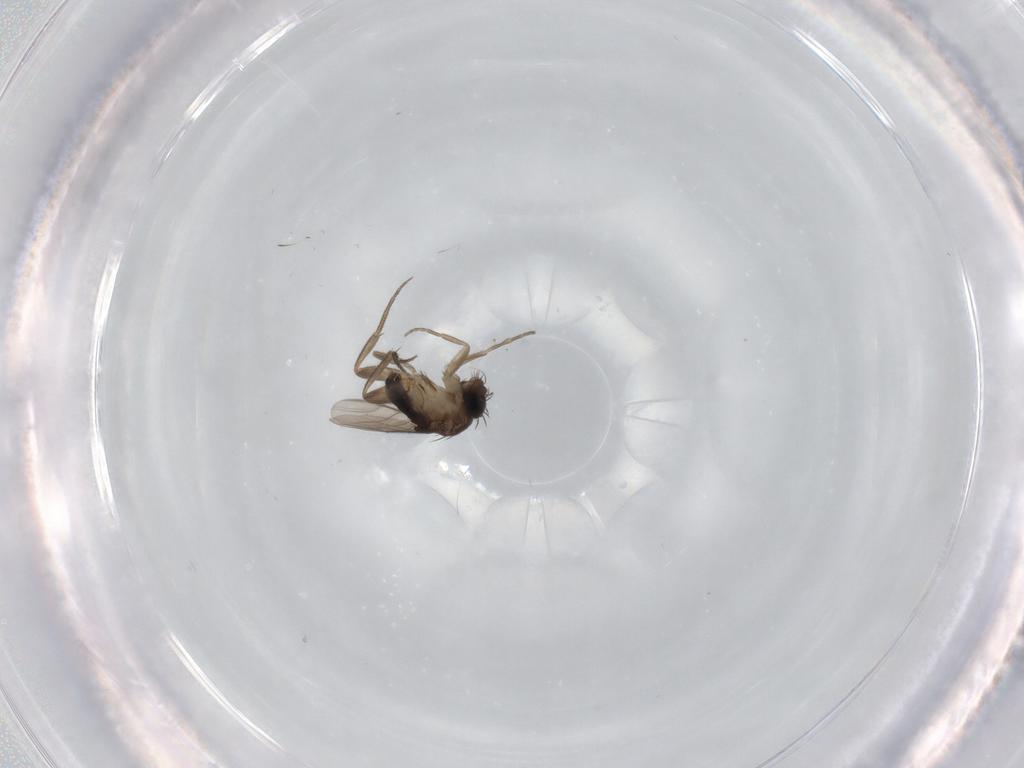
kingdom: Animalia
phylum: Arthropoda
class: Insecta
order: Diptera
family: Phoridae
